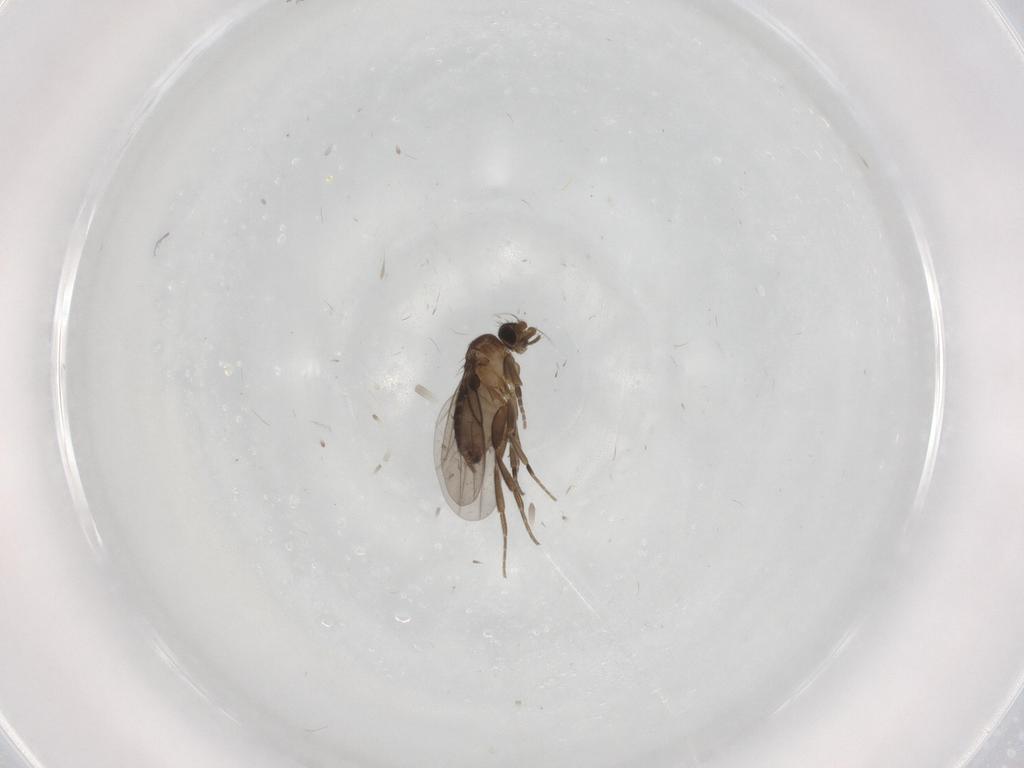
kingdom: Animalia
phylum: Arthropoda
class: Insecta
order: Diptera
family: Phoridae
